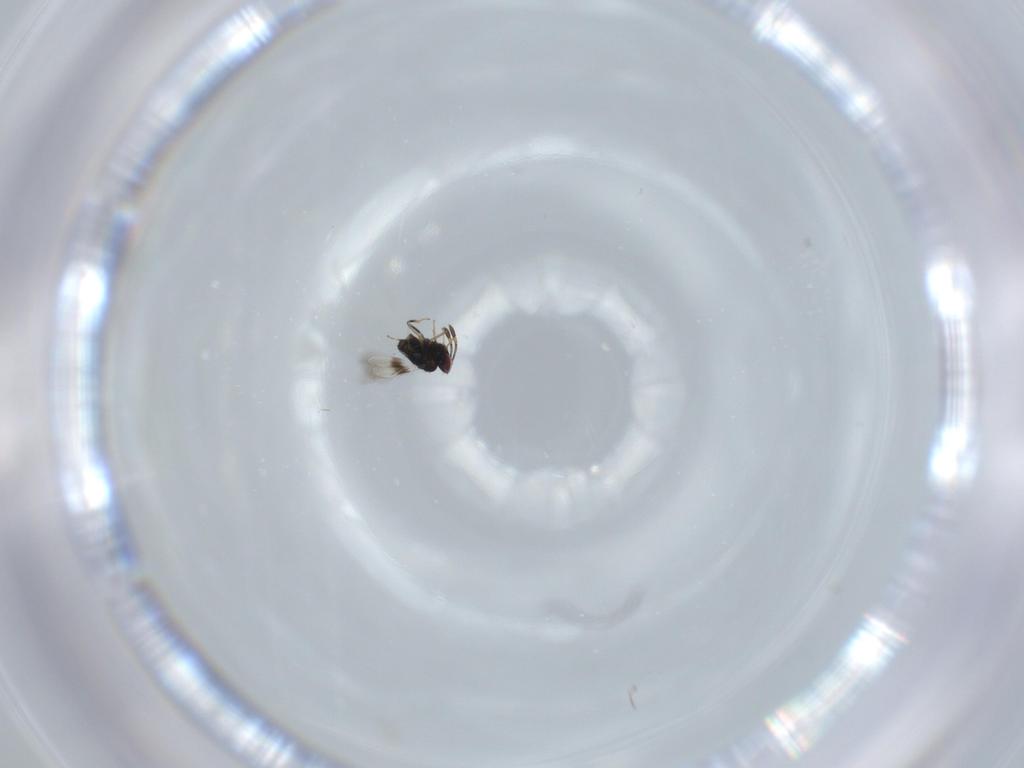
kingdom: Animalia
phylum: Arthropoda
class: Insecta
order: Hymenoptera
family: Azotidae
